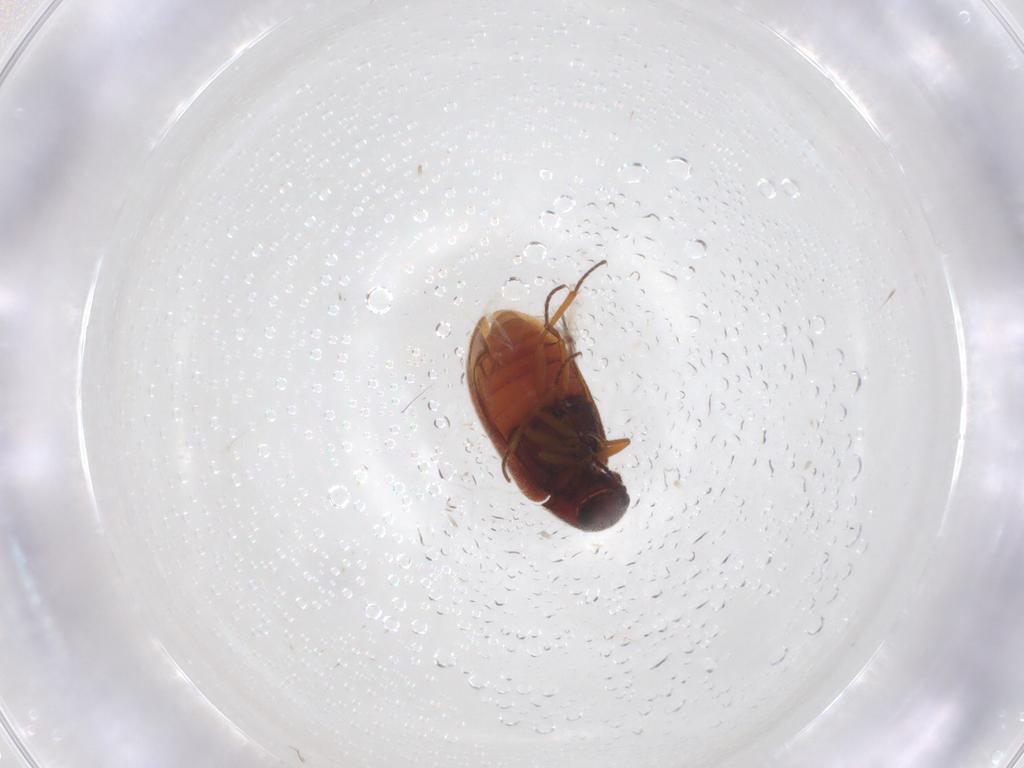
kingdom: Animalia
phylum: Arthropoda
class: Insecta
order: Coleoptera
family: Rhadalidae
